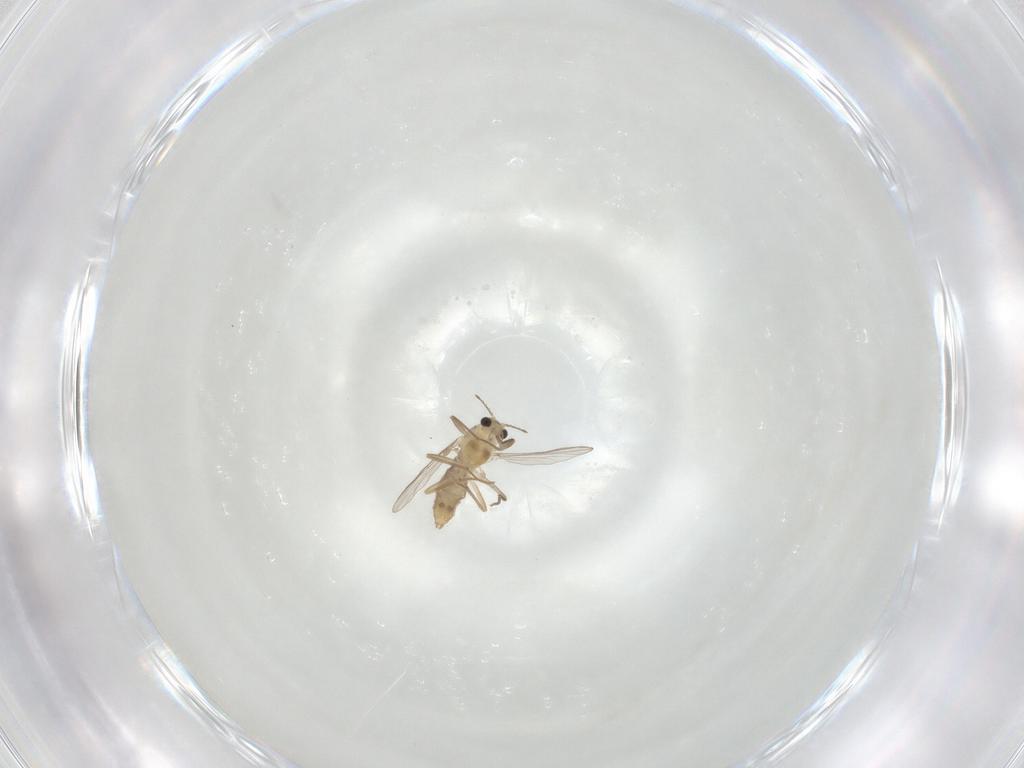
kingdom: Animalia
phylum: Arthropoda
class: Insecta
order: Diptera
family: Chironomidae
